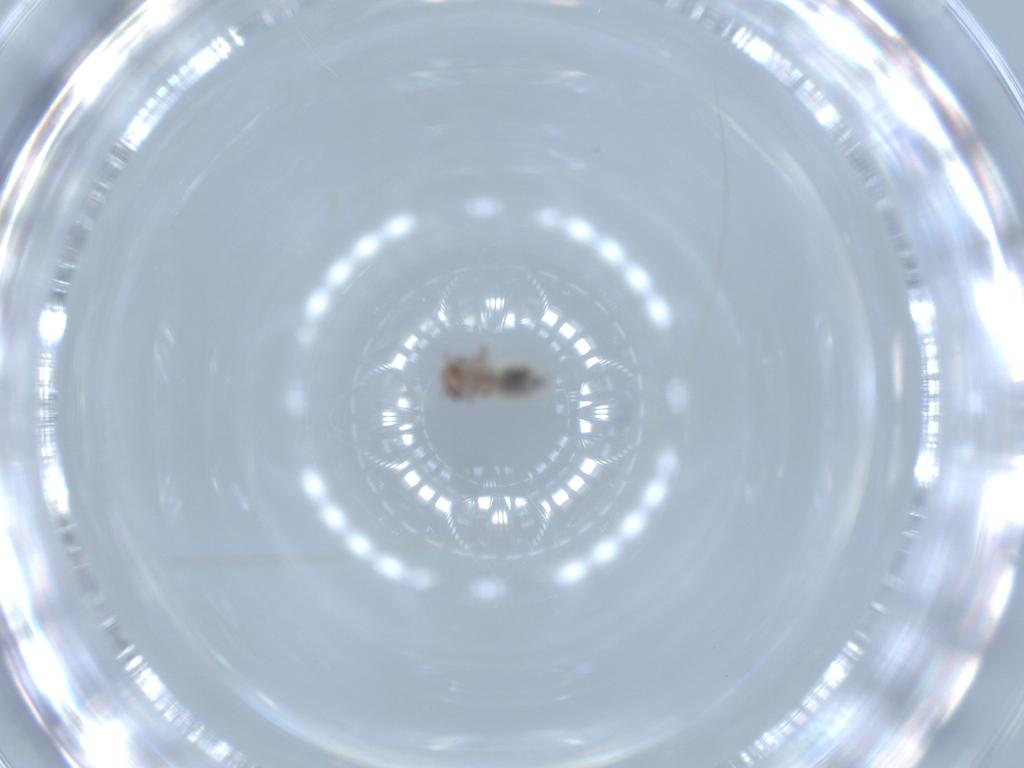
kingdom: Animalia
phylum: Arthropoda
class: Insecta
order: Psocodea
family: Lepidopsocidae
